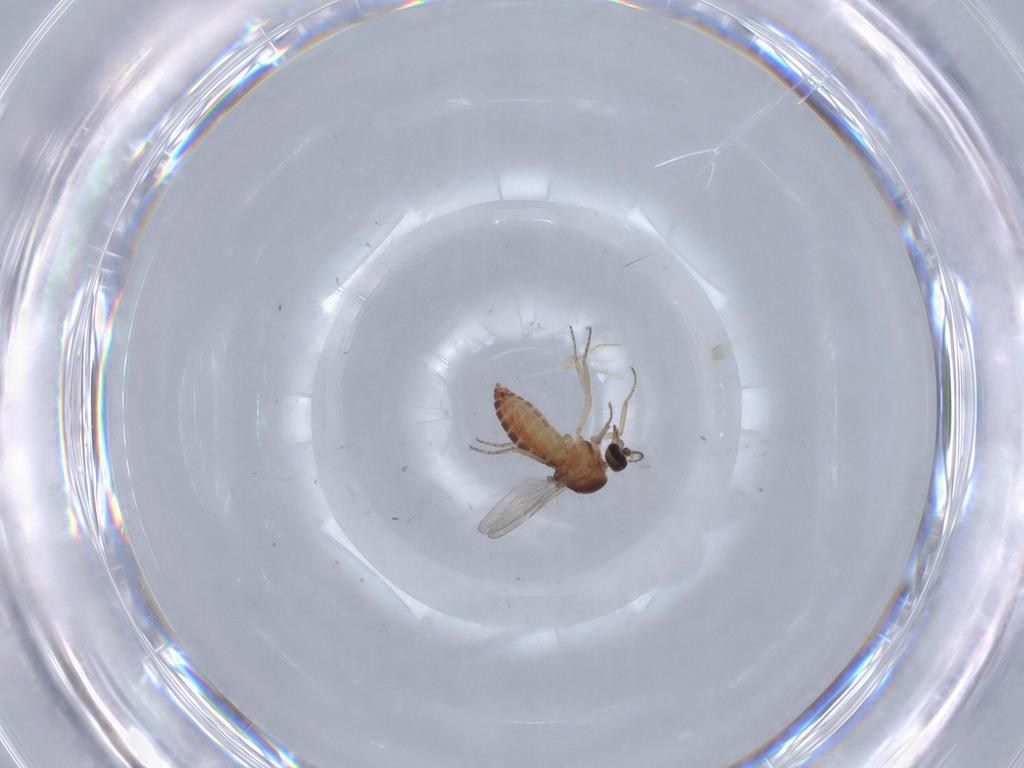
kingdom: Animalia
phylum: Arthropoda
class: Insecta
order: Diptera
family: Ceratopogonidae
